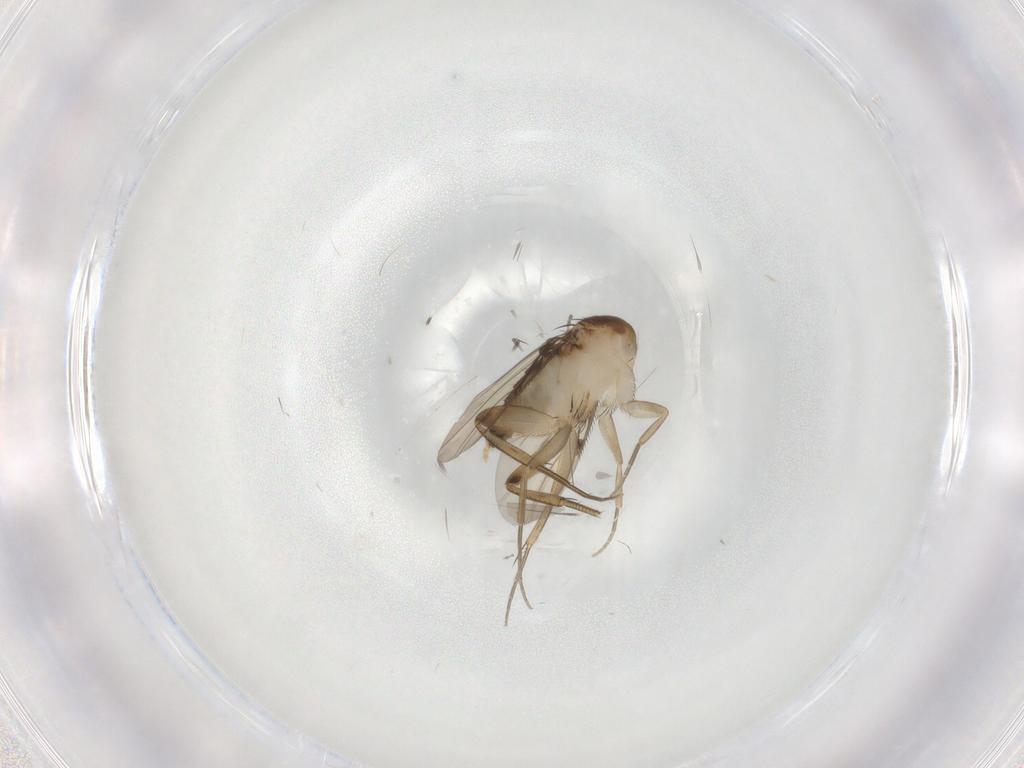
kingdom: Animalia
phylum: Arthropoda
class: Insecta
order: Diptera
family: Phoridae
